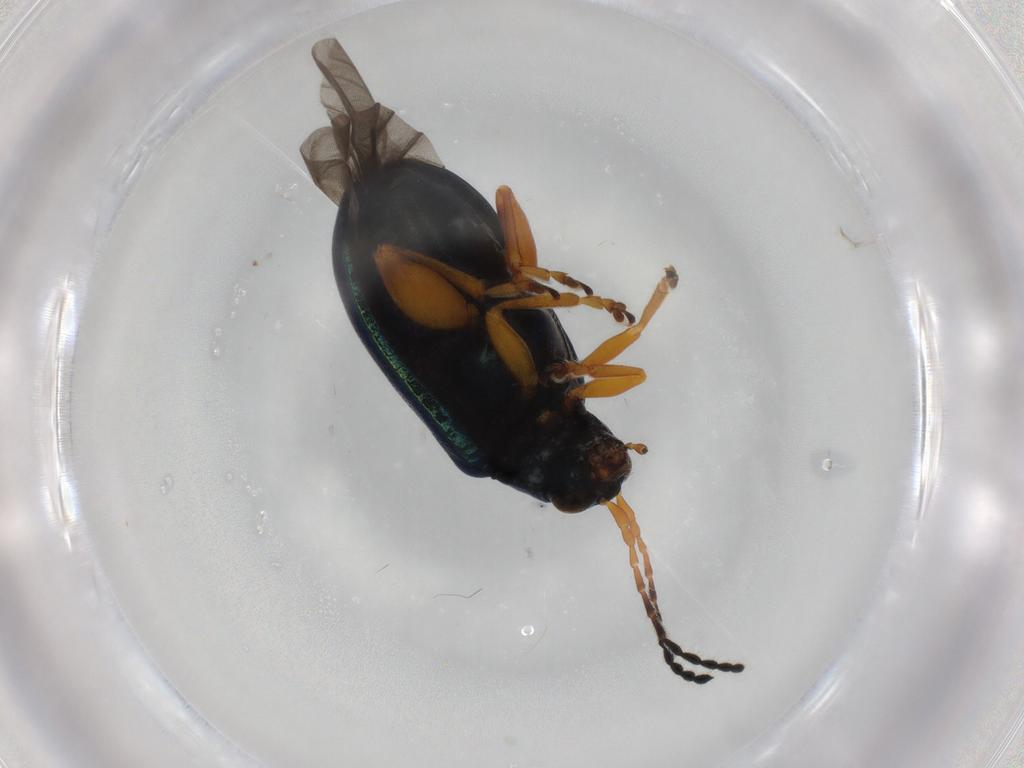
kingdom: Animalia
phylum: Arthropoda
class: Insecta
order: Coleoptera
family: Chrysomelidae
